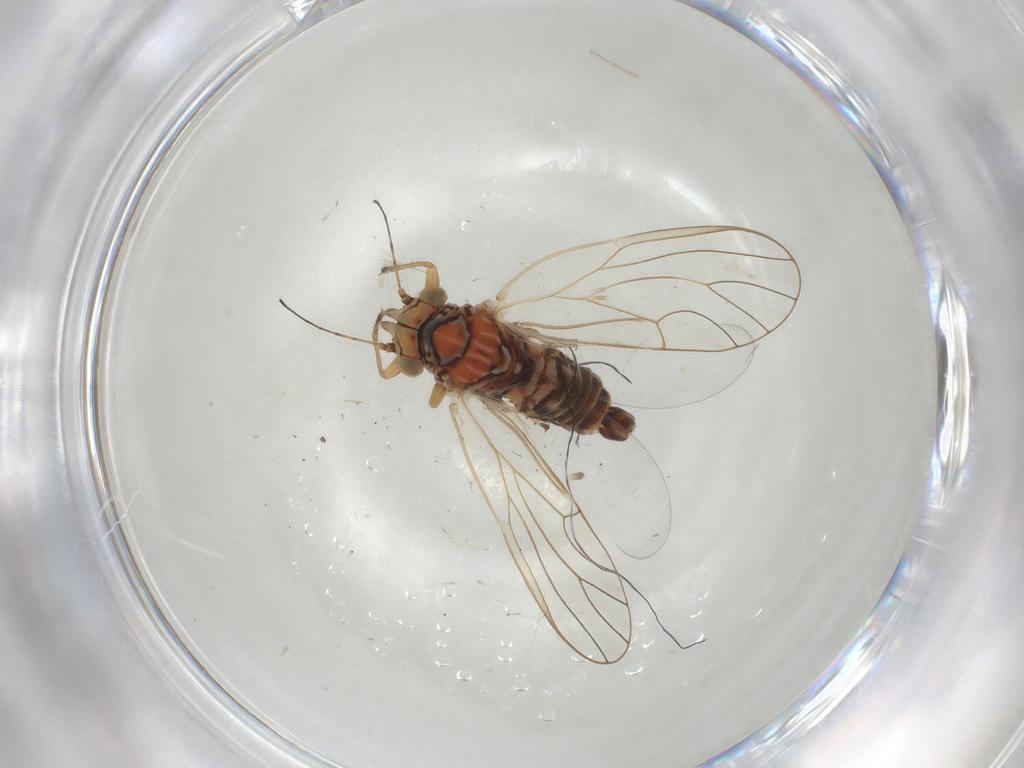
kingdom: Animalia
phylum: Arthropoda
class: Insecta
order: Hemiptera
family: Psyllidae
